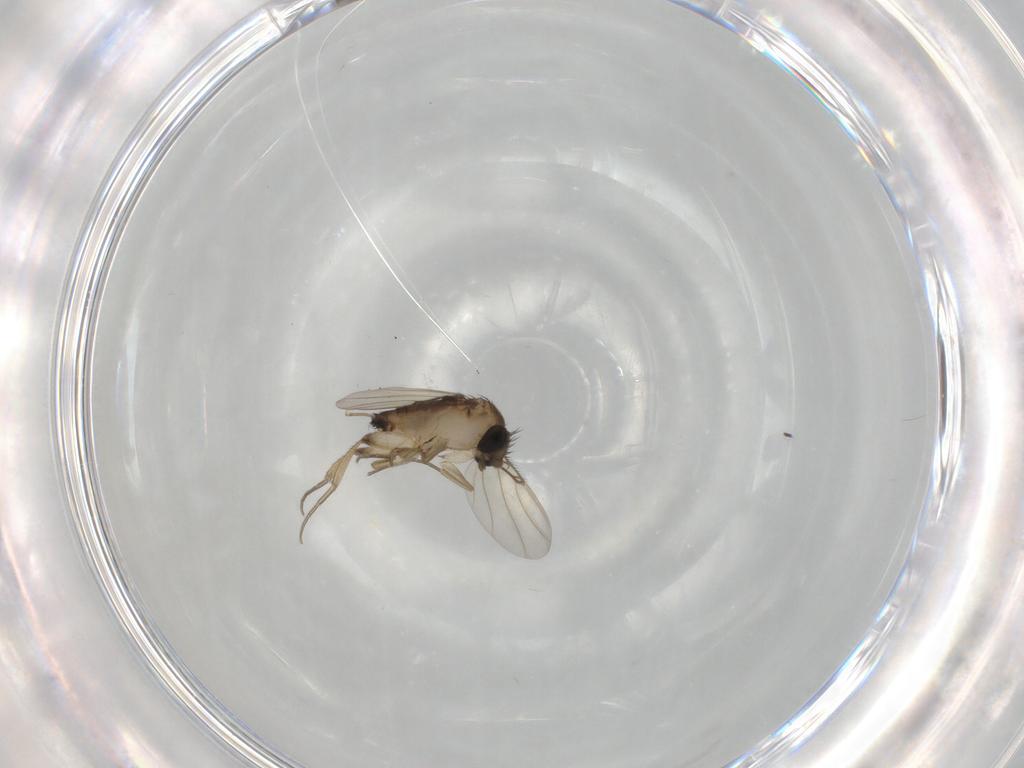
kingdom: Animalia
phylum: Arthropoda
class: Insecta
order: Diptera
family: Phoridae
